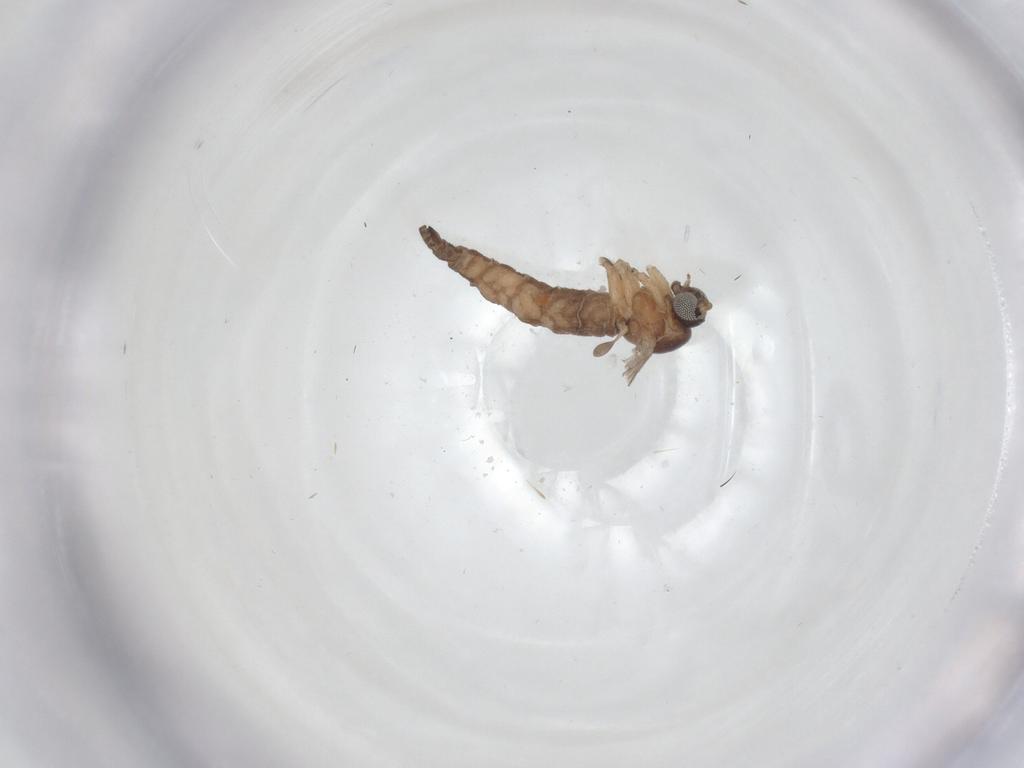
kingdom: Animalia
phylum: Arthropoda
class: Insecta
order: Diptera
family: Sciaridae
